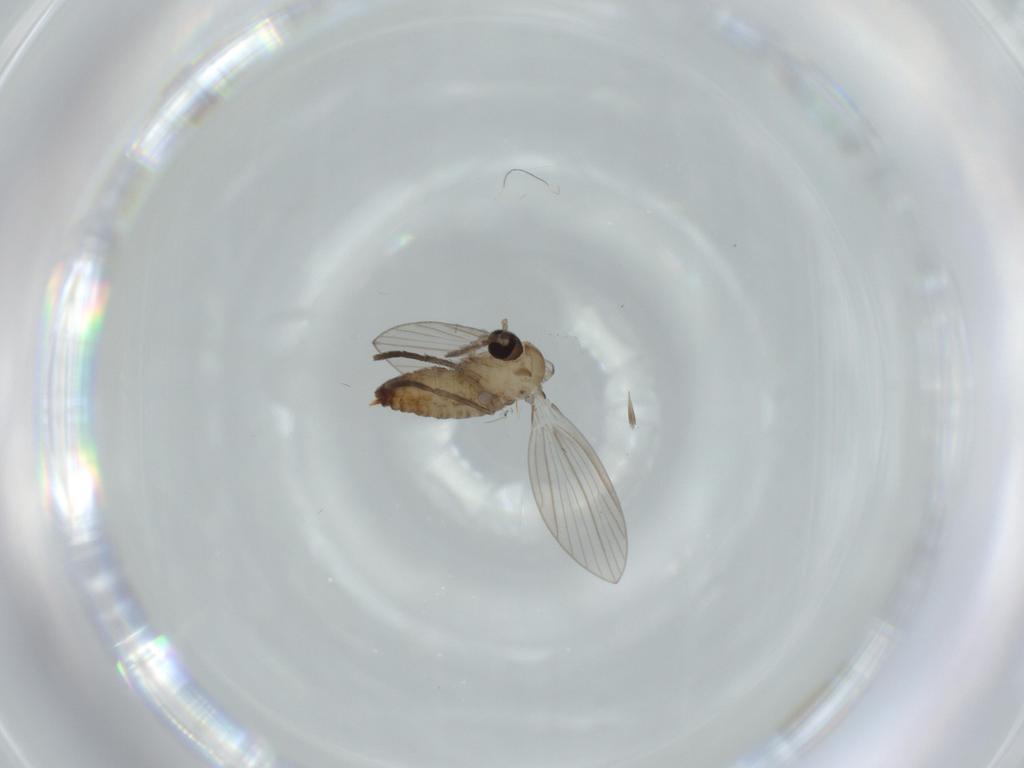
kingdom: Animalia
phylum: Arthropoda
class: Insecta
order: Diptera
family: Psychodidae
